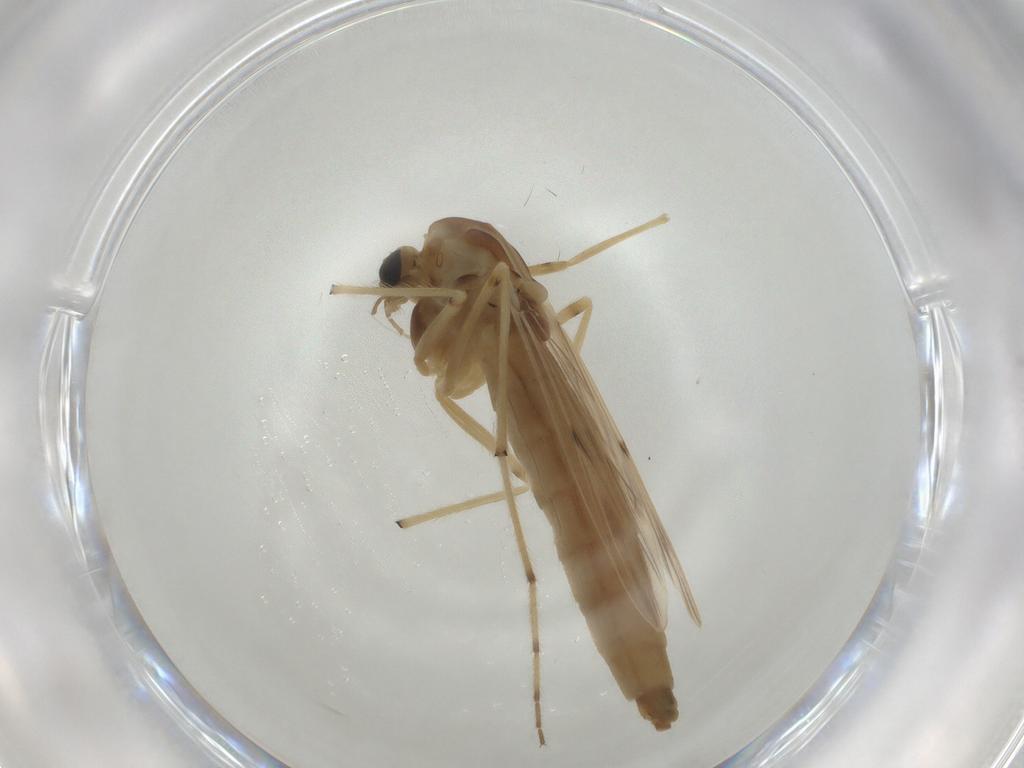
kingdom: Animalia
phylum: Arthropoda
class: Insecta
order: Diptera
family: Chironomidae
